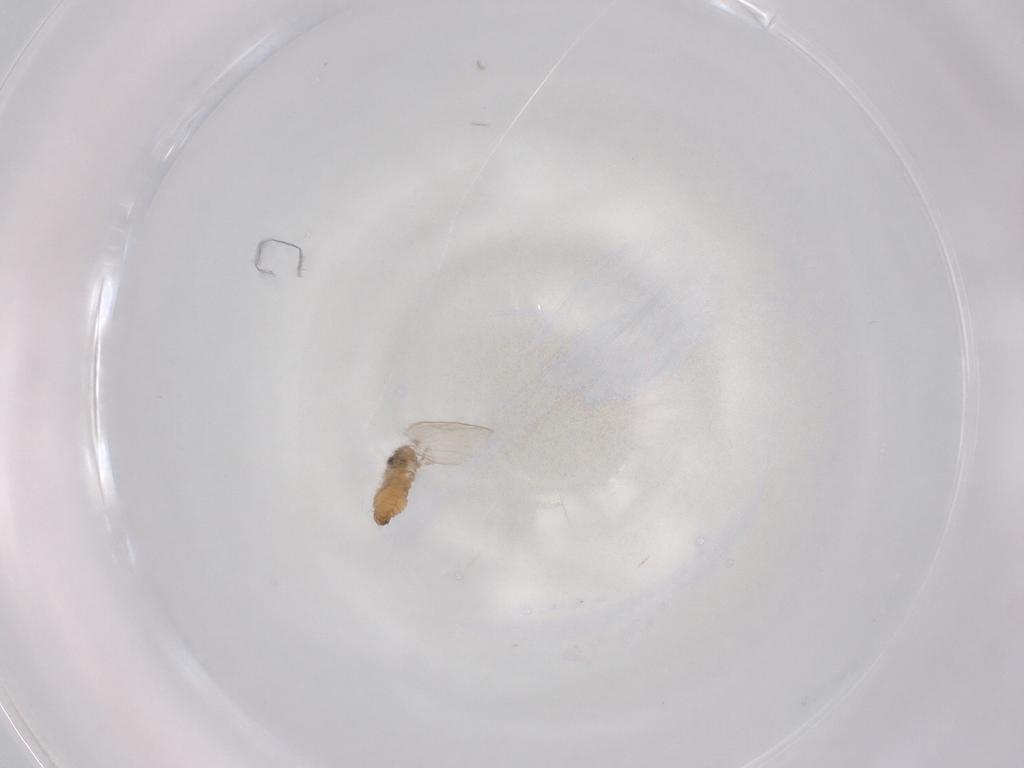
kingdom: Animalia
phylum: Arthropoda
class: Insecta
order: Diptera
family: Psychodidae
